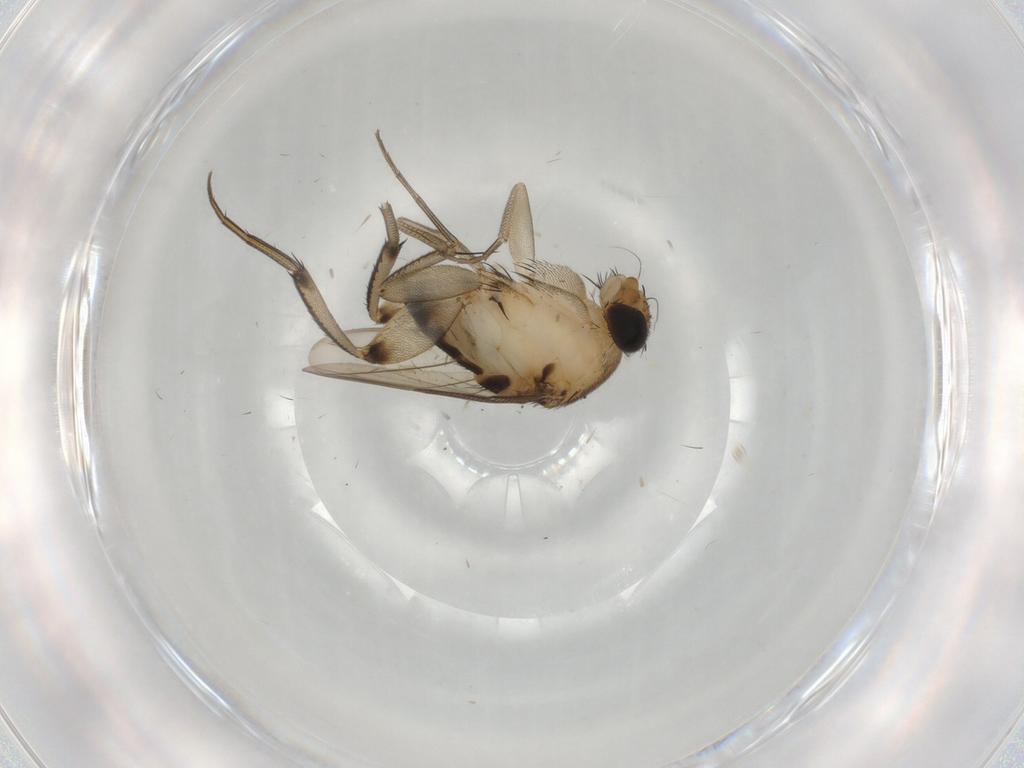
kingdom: Animalia
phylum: Arthropoda
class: Insecta
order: Diptera
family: Phoridae
